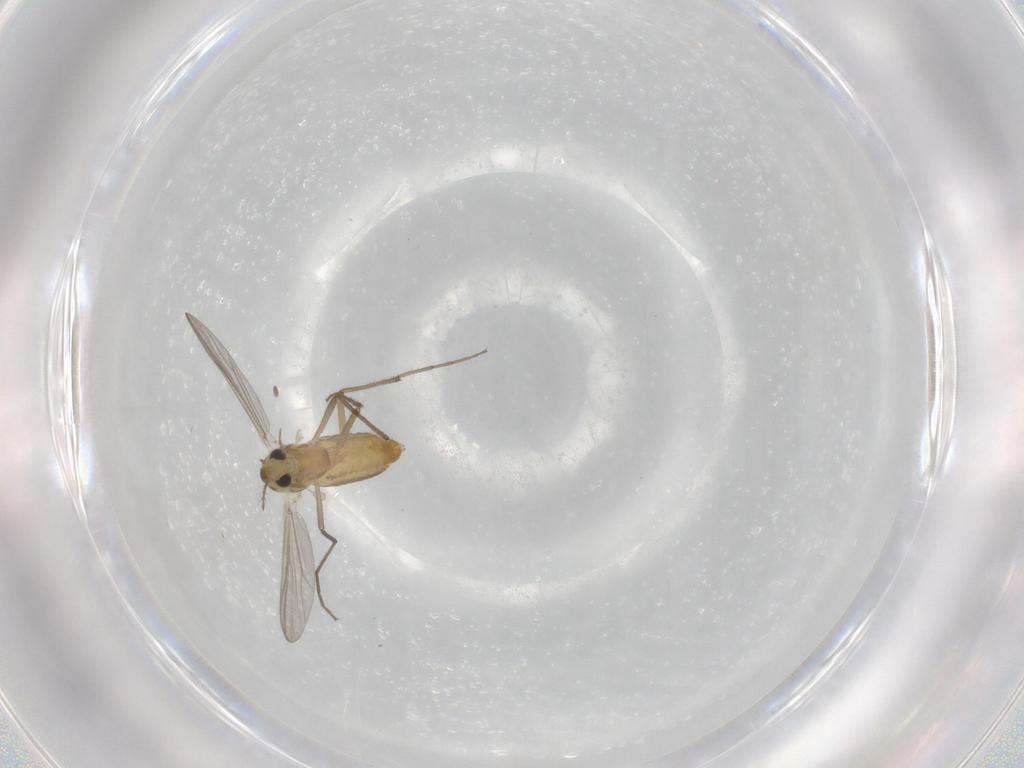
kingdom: Animalia
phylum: Arthropoda
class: Insecta
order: Diptera
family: Chironomidae
